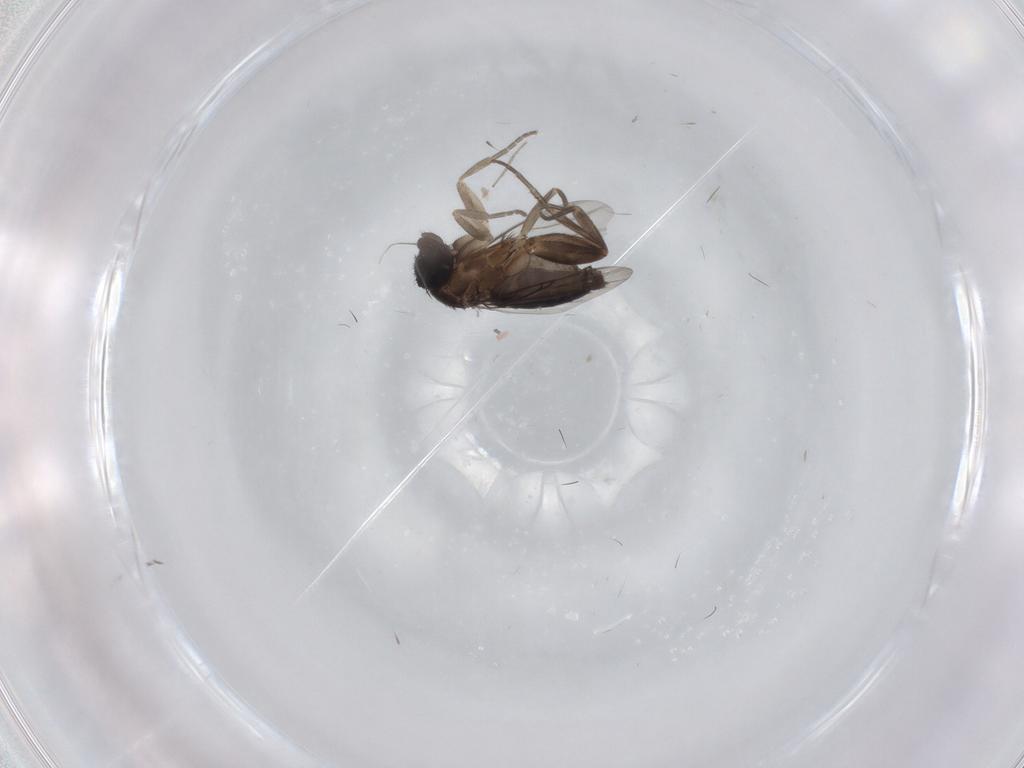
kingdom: Animalia
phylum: Arthropoda
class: Insecta
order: Diptera
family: Phoridae
